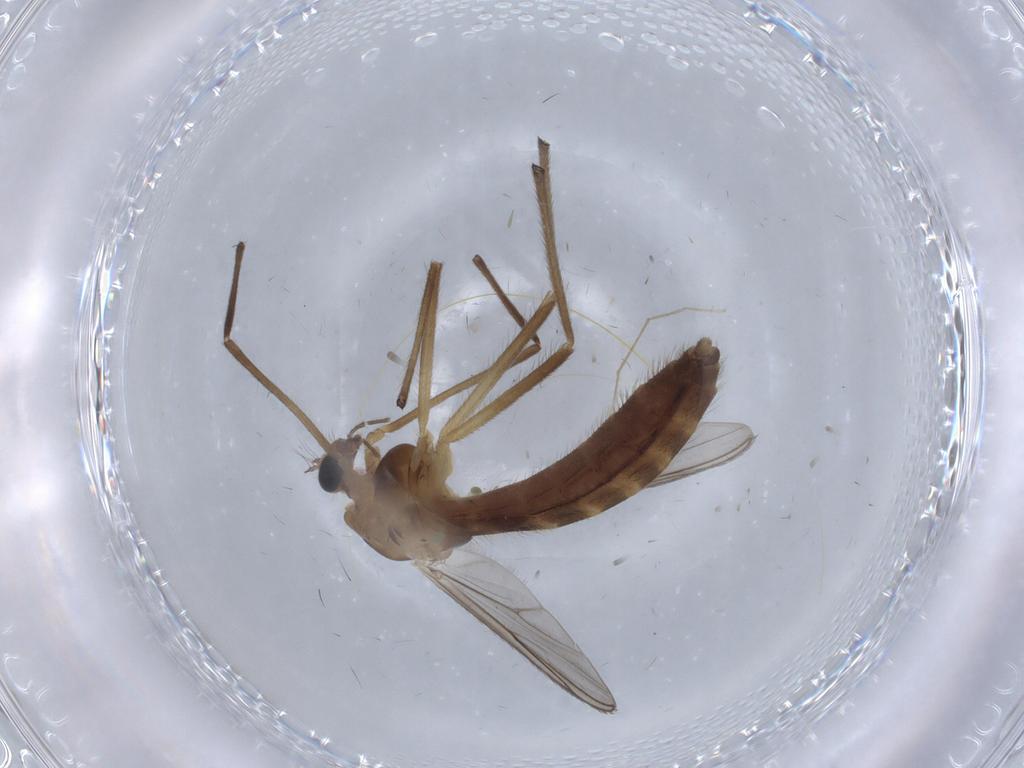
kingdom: Animalia
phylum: Arthropoda
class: Insecta
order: Diptera
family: Chironomidae
